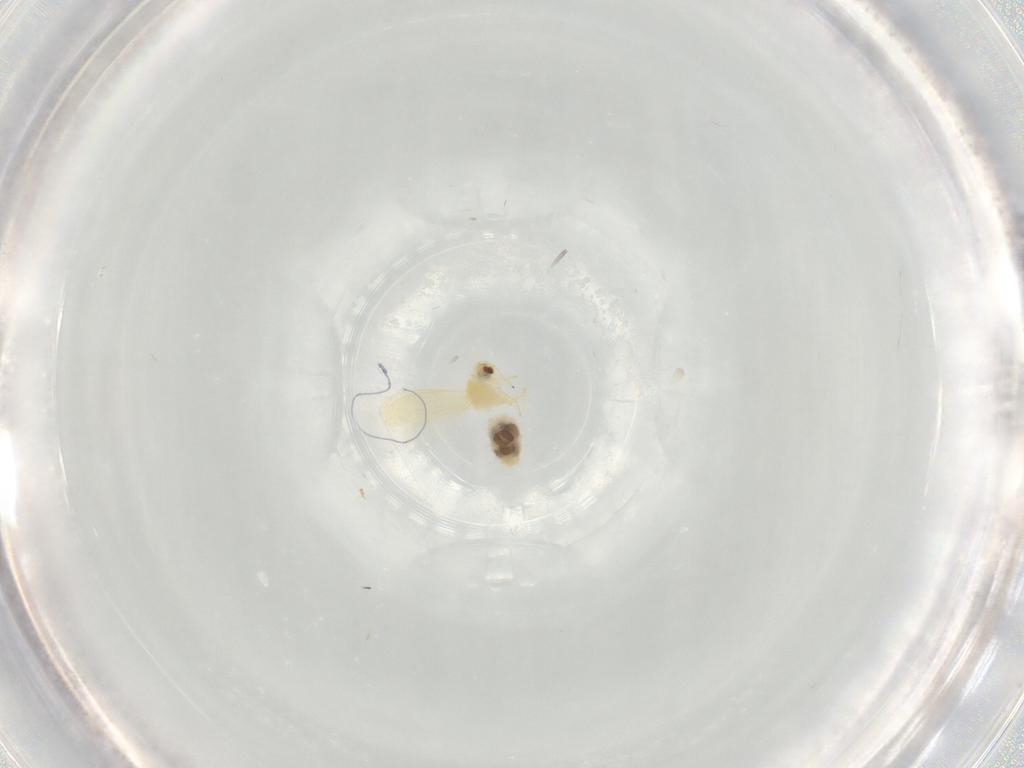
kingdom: Animalia
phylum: Arthropoda
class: Insecta
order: Hemiptera
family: Aleyrodidae
